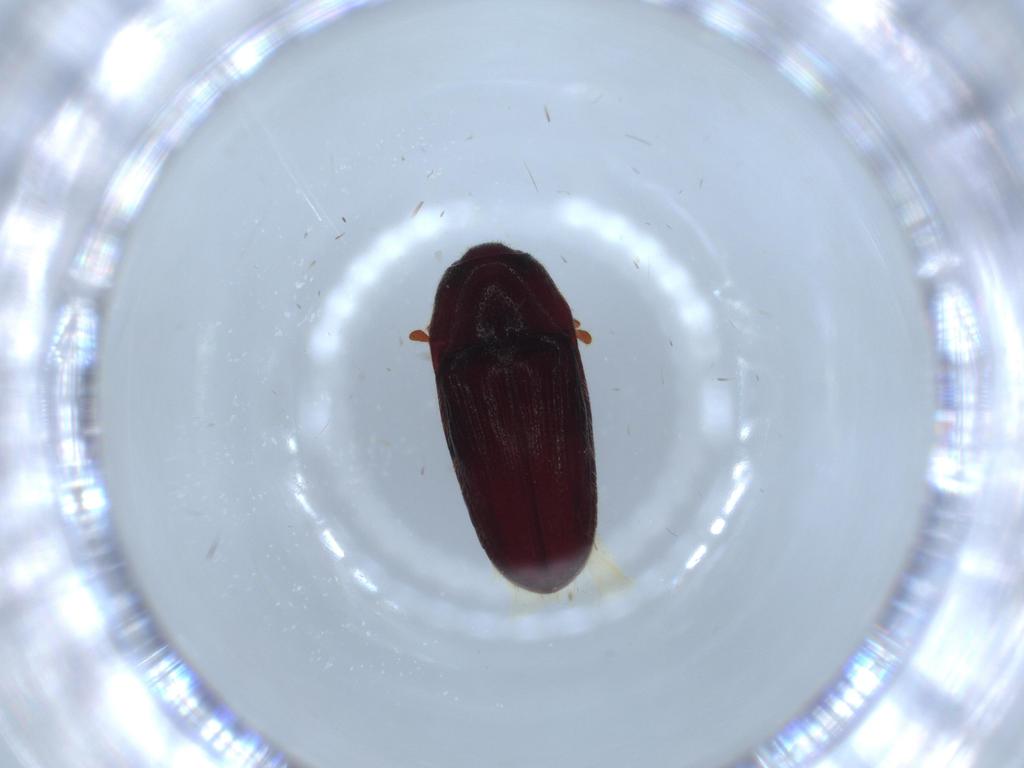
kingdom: Animalia
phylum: Arthropoda
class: Insecta
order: Coleoptera
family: Throscidae
